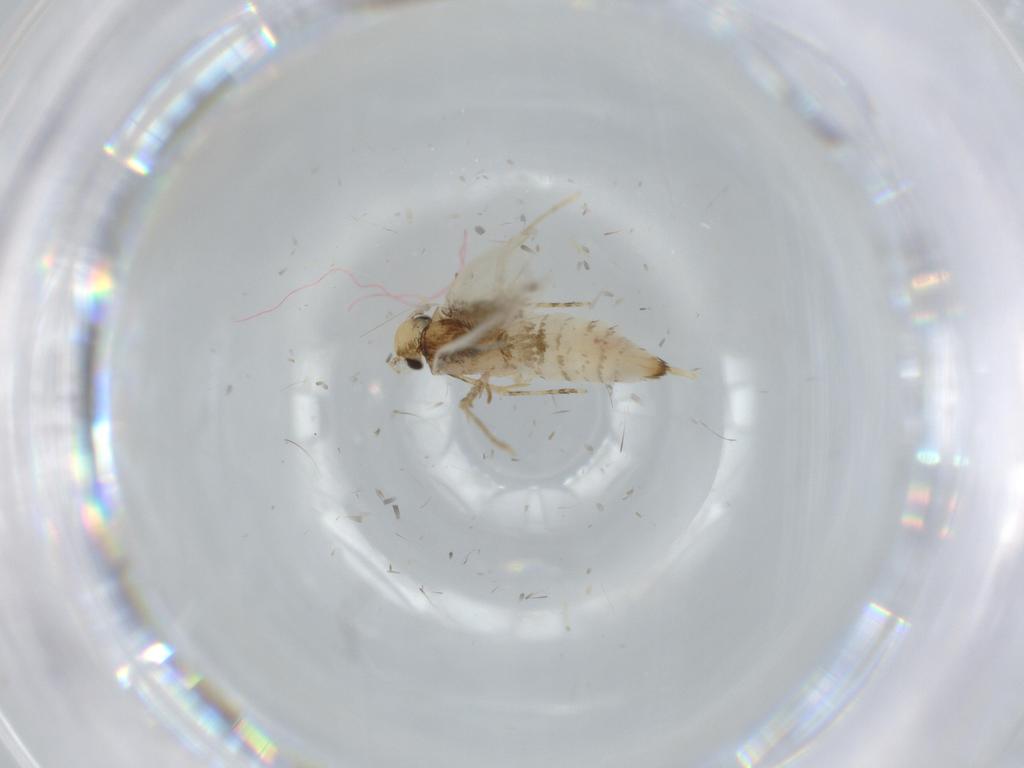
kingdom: Animalia
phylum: Arthropoda
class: Insecta
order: Lepidoptera
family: Tineidae
